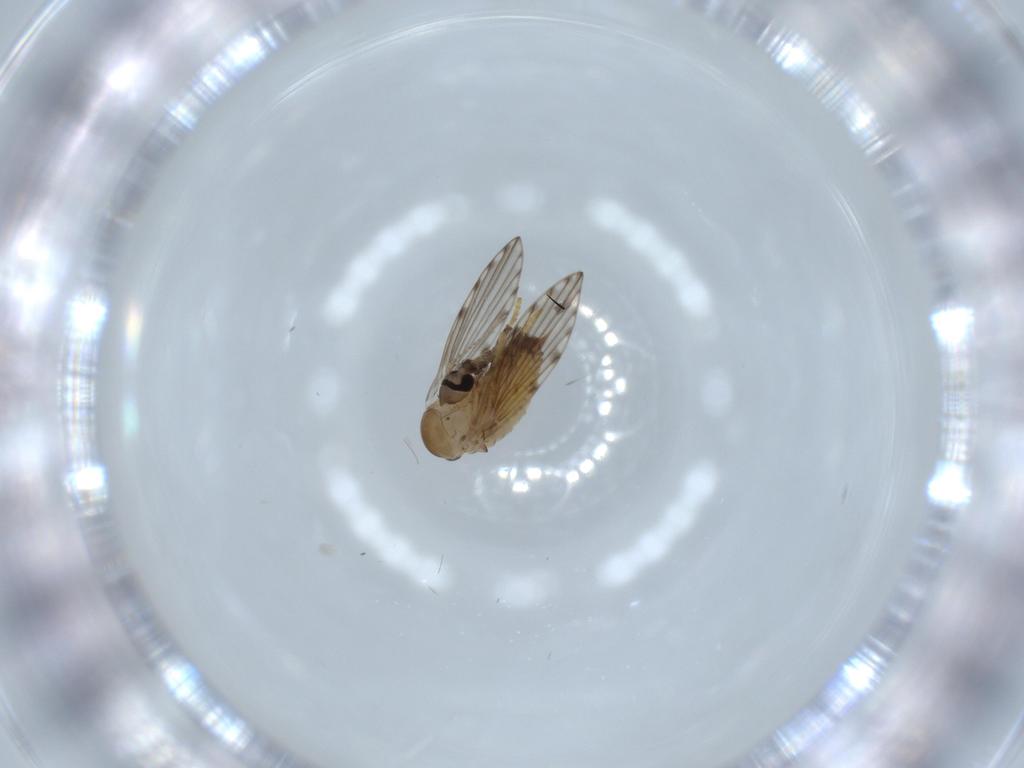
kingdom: Animalia
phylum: Arthropoda
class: Insecta
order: Diptera
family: Psychodidae
